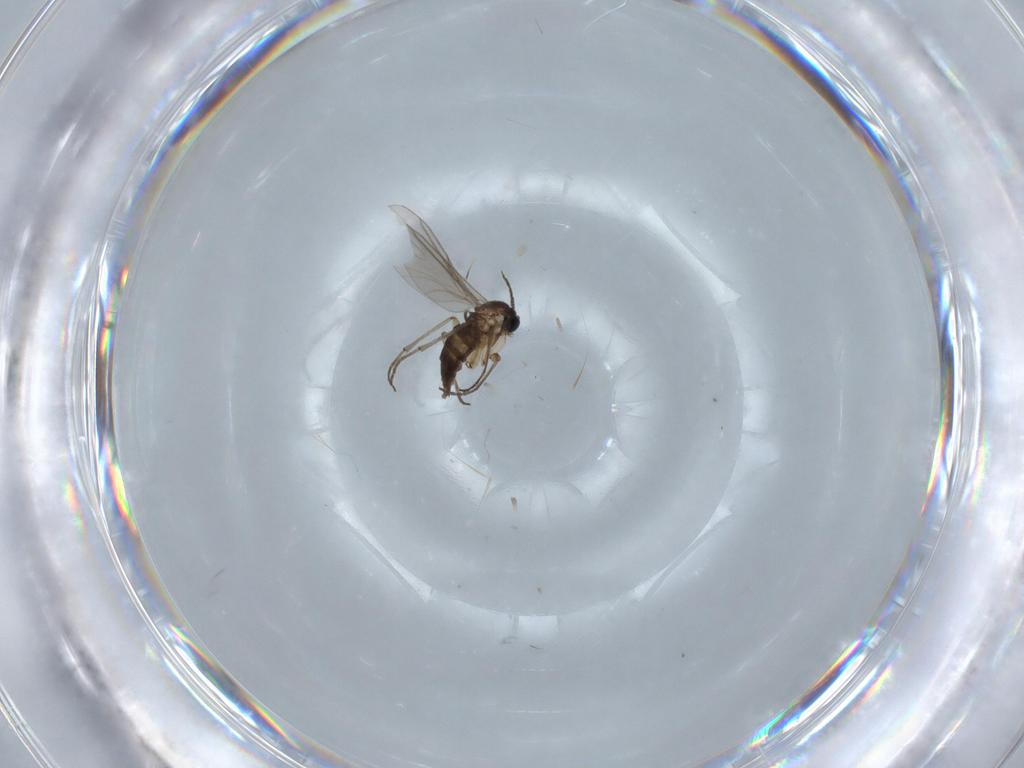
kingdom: Animalia
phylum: Arthropoda
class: Insecta
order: Diptera
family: Sciaridae
